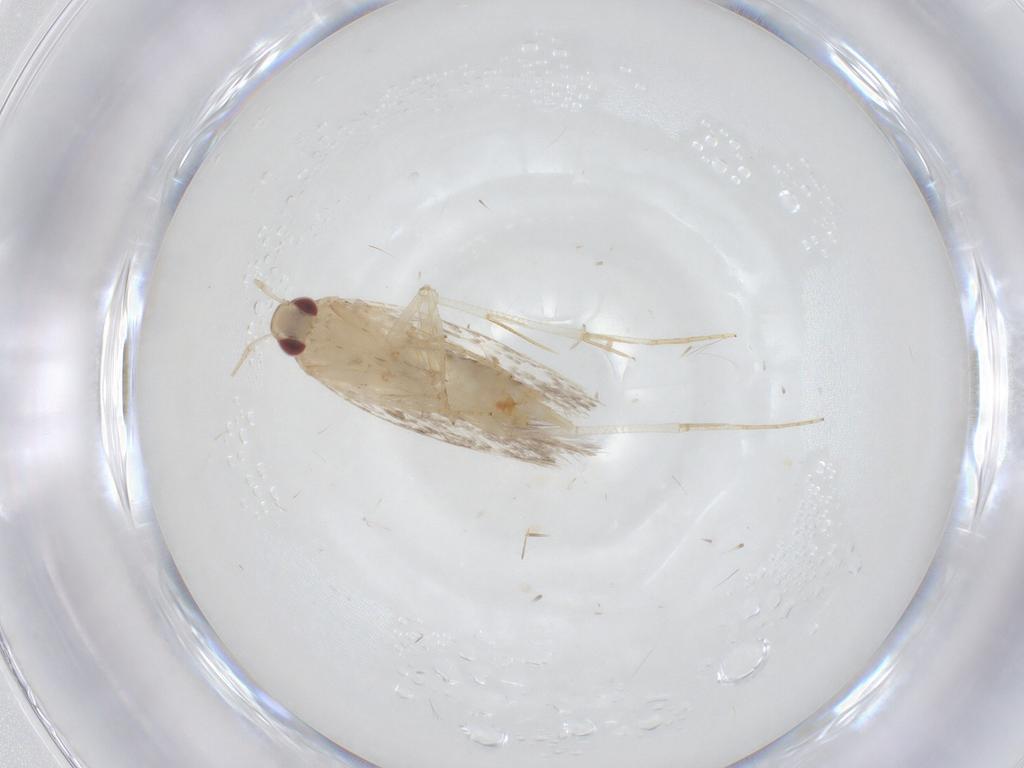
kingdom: Animalia
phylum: Arthropoda
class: Insecta
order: Lepidoptera
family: Cosmopterigidae
